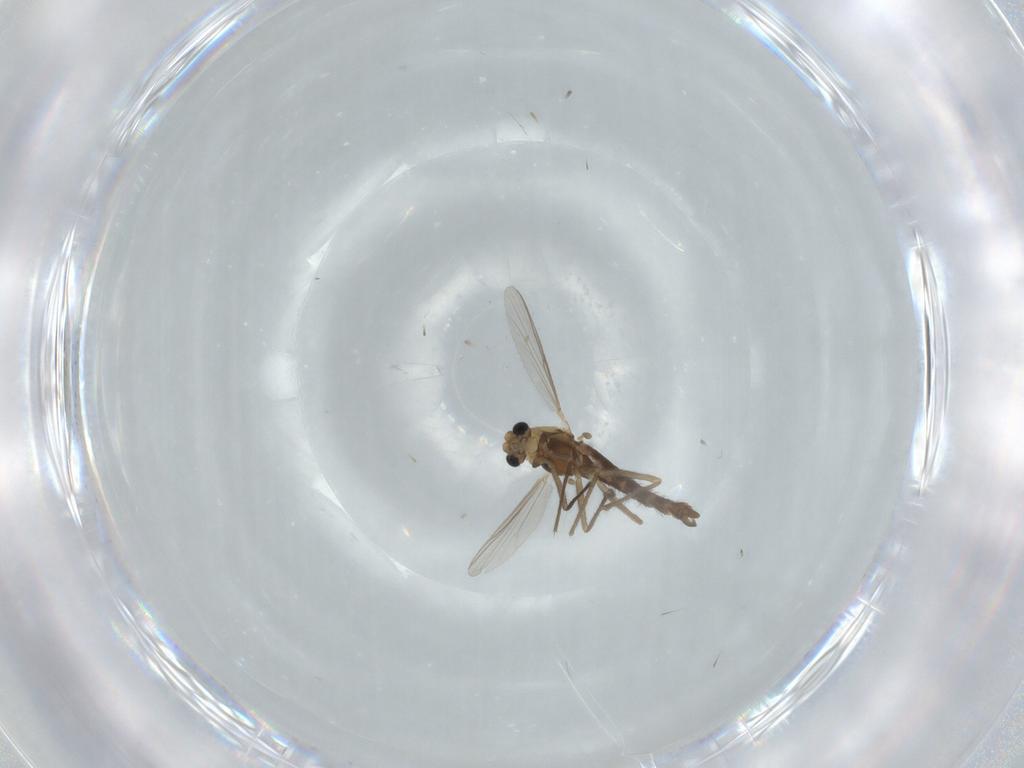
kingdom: Animalia
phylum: Arthropoda
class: Insecta
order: Diptera
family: Chironomidae
